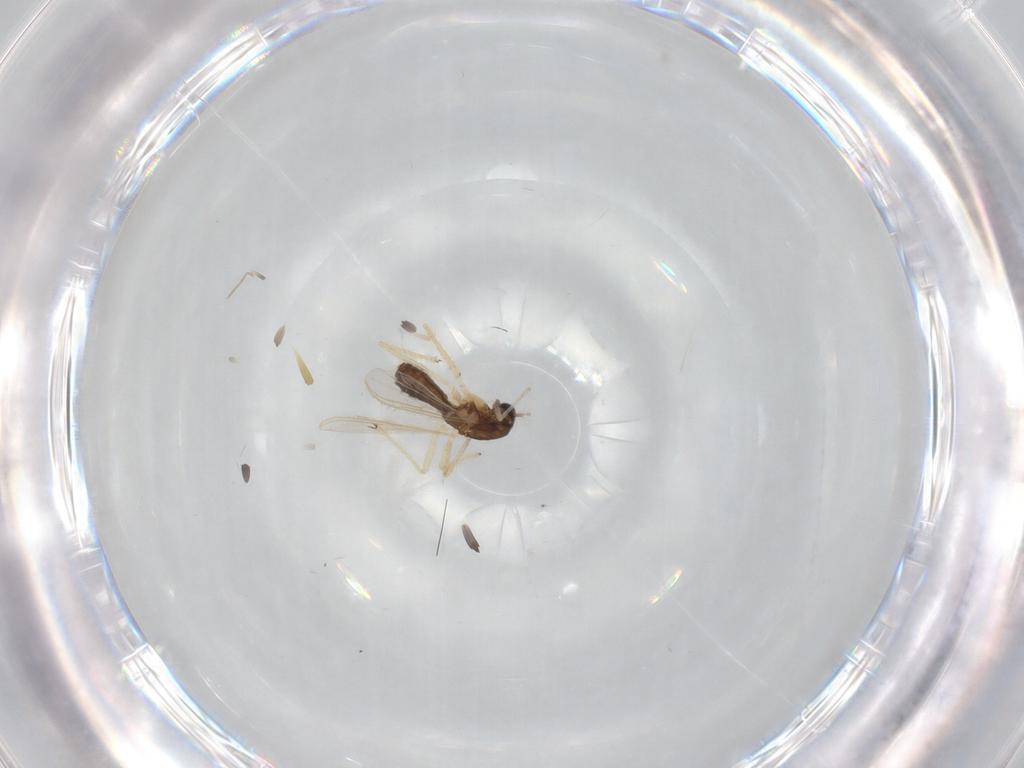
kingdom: Animalia
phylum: Arthropoda
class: Insecta
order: Diptera
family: Chironomidae
